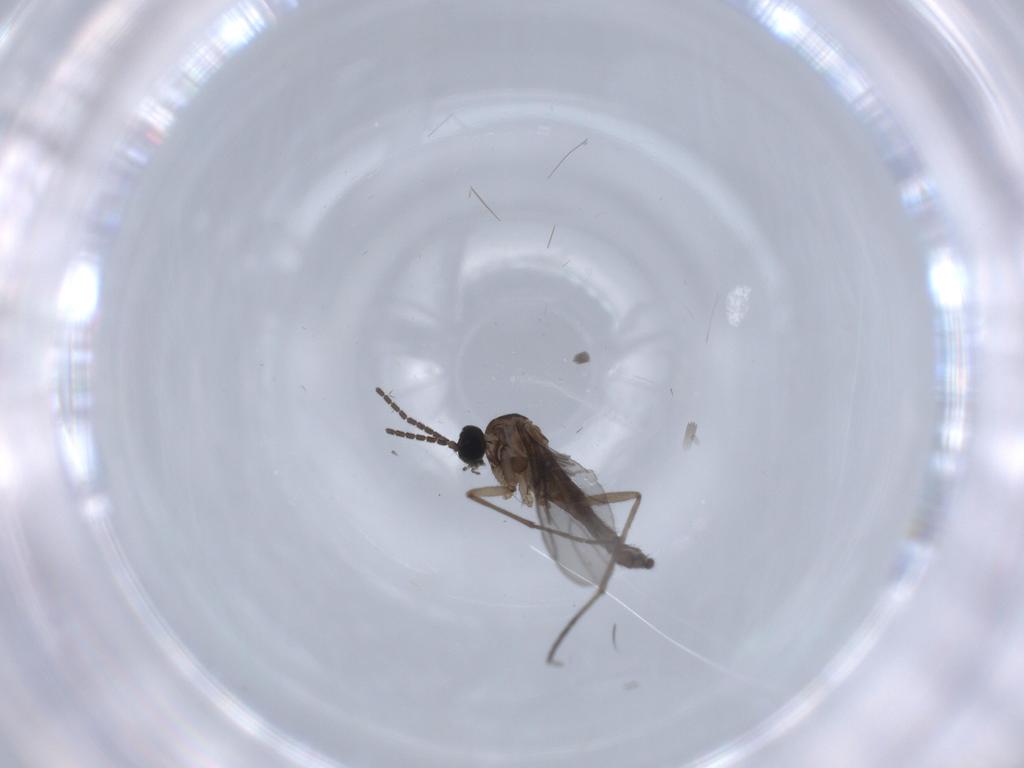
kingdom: Animalia
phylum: Arthropoda
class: Insecta
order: Diptera
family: Sciaridae
